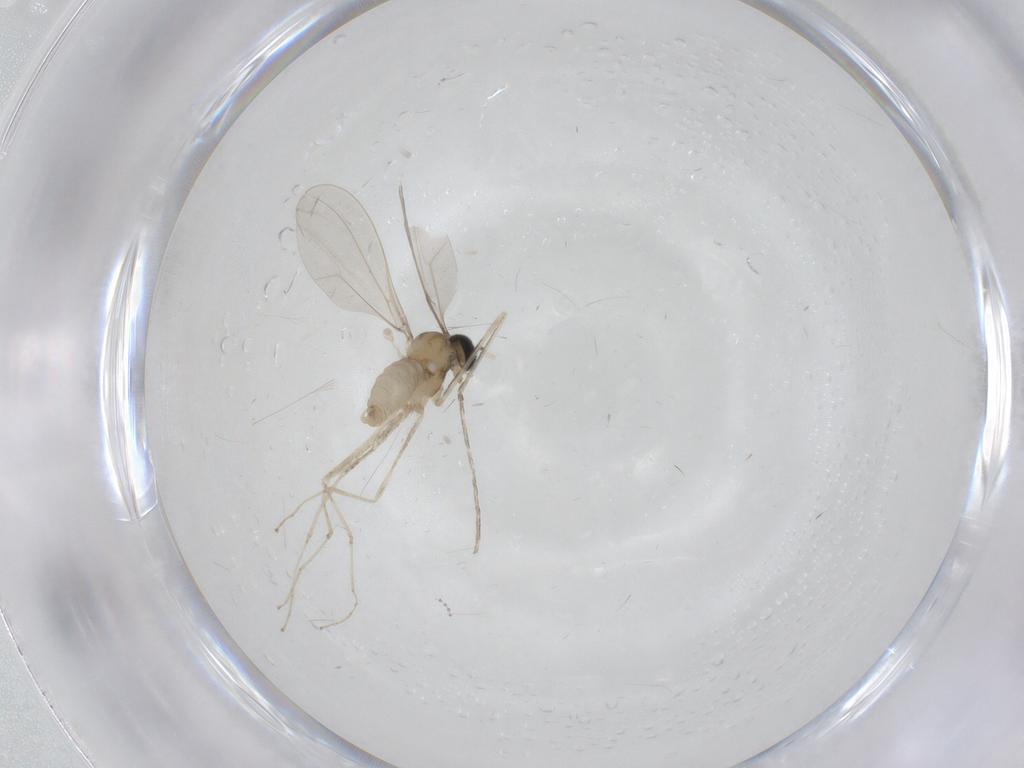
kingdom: Animalia
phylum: Arthropoda
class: Insecta
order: Diptera
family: Cecidomyiidae
